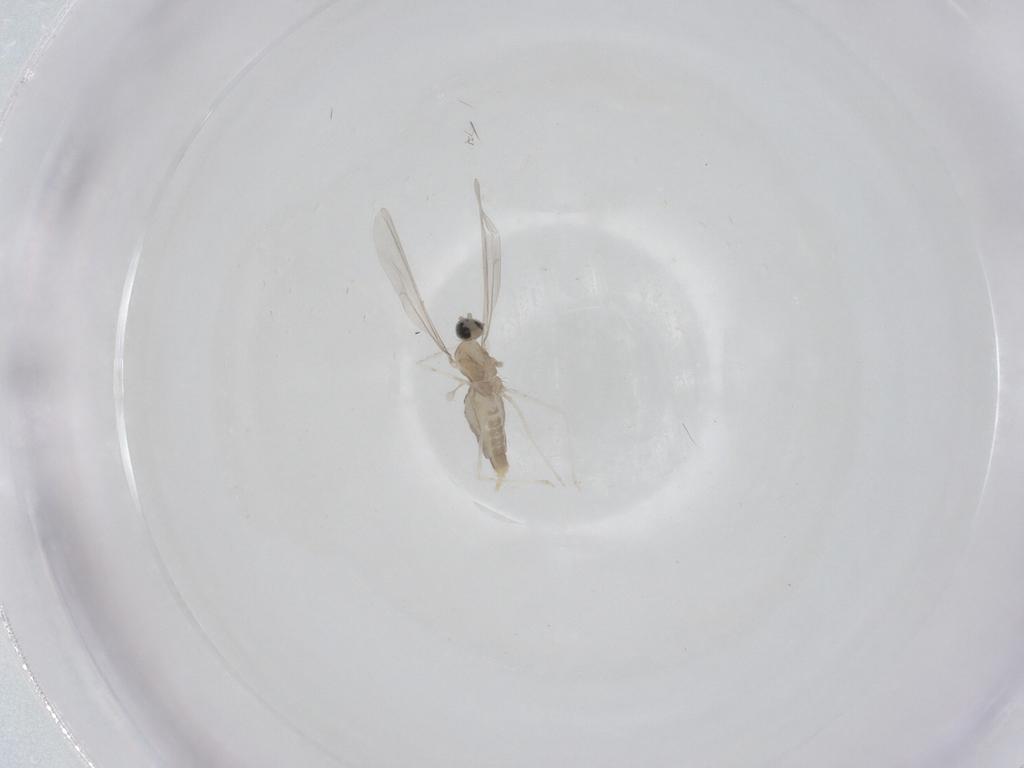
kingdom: Animalia
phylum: Arthropoda
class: Insecta
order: Diptera
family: Cecidomyiidae
